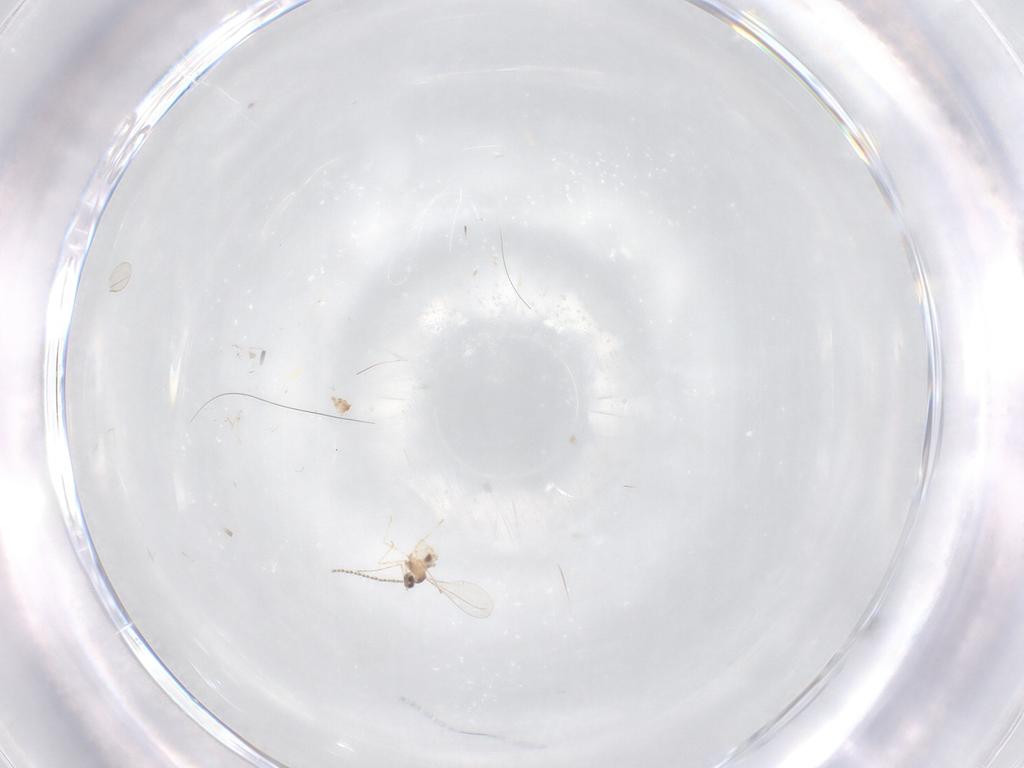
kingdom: Animalia
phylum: Arthropoda
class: Insecta
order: Diptera
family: Cecidomyiidae
